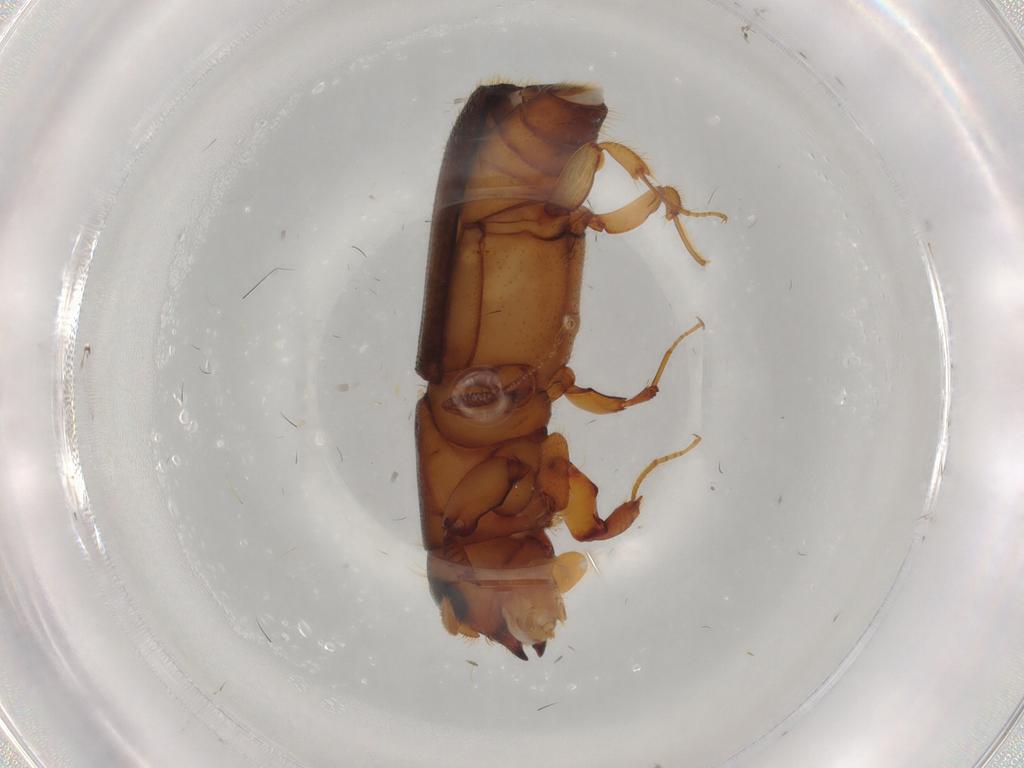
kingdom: Animalia
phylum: Arthropoda
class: Insecta
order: Coleoptera
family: Curculionidae
